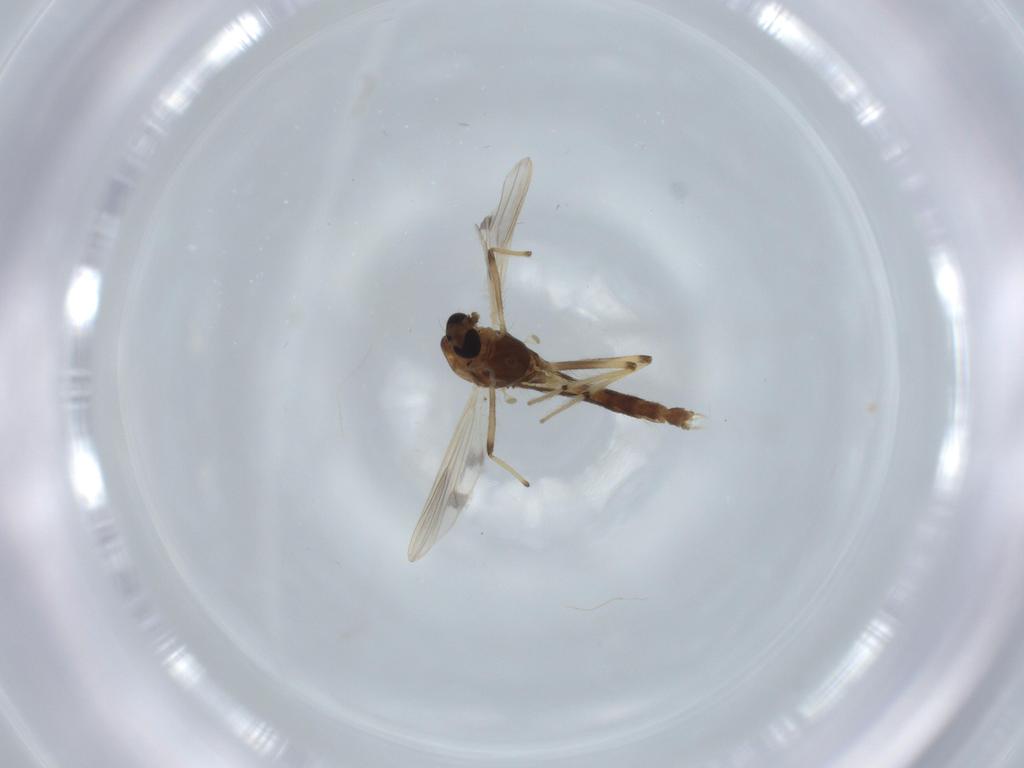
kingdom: Animalia
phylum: Arthropoda
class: Insecta
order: Diptera
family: Chironomidae
